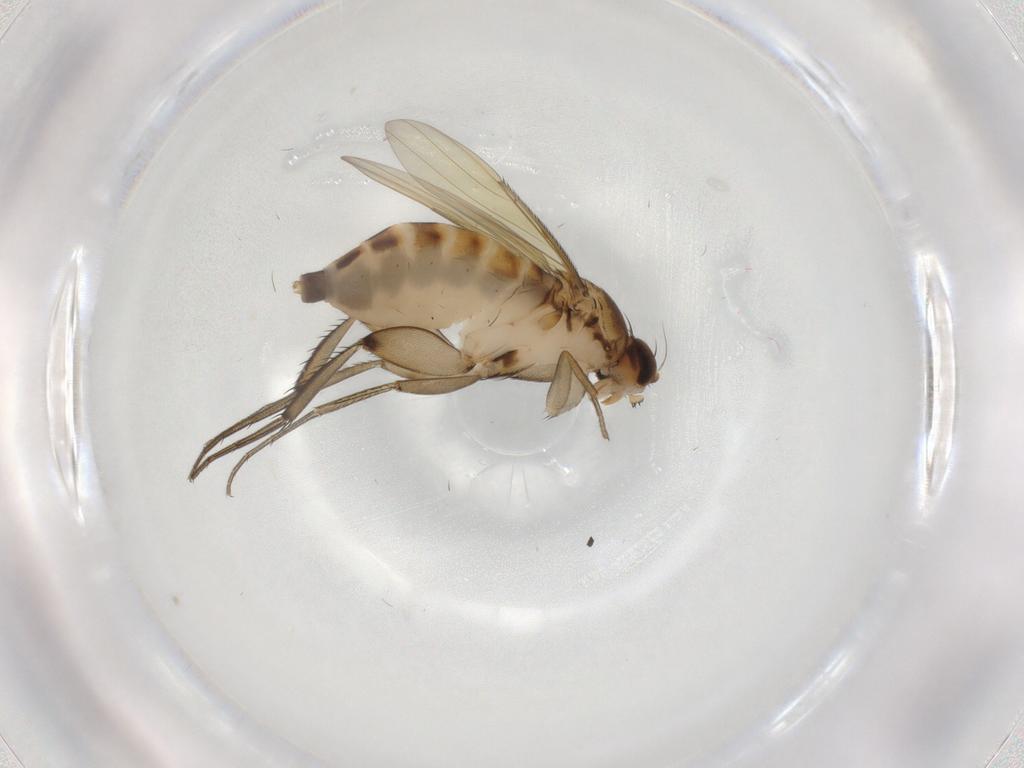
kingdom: Animalia
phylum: Arthropoda
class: Insecta
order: Diptera
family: Phoridae
